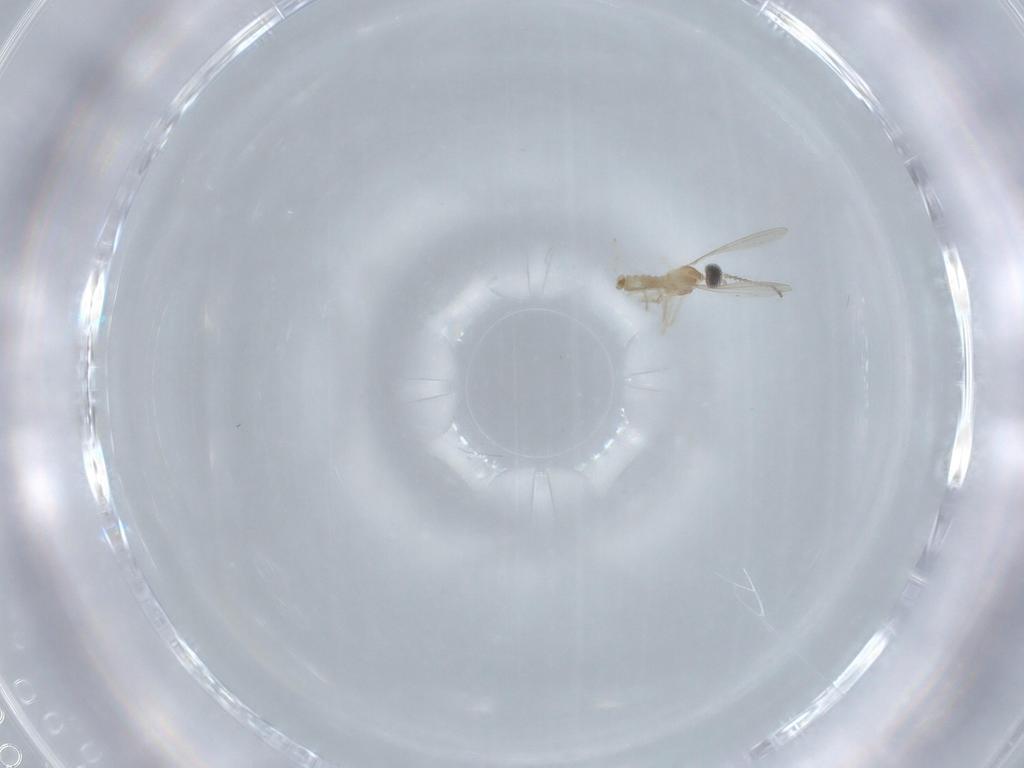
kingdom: Animalia
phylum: Arthropoda
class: Insecta
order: Diptera
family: Cecidomyiidae
